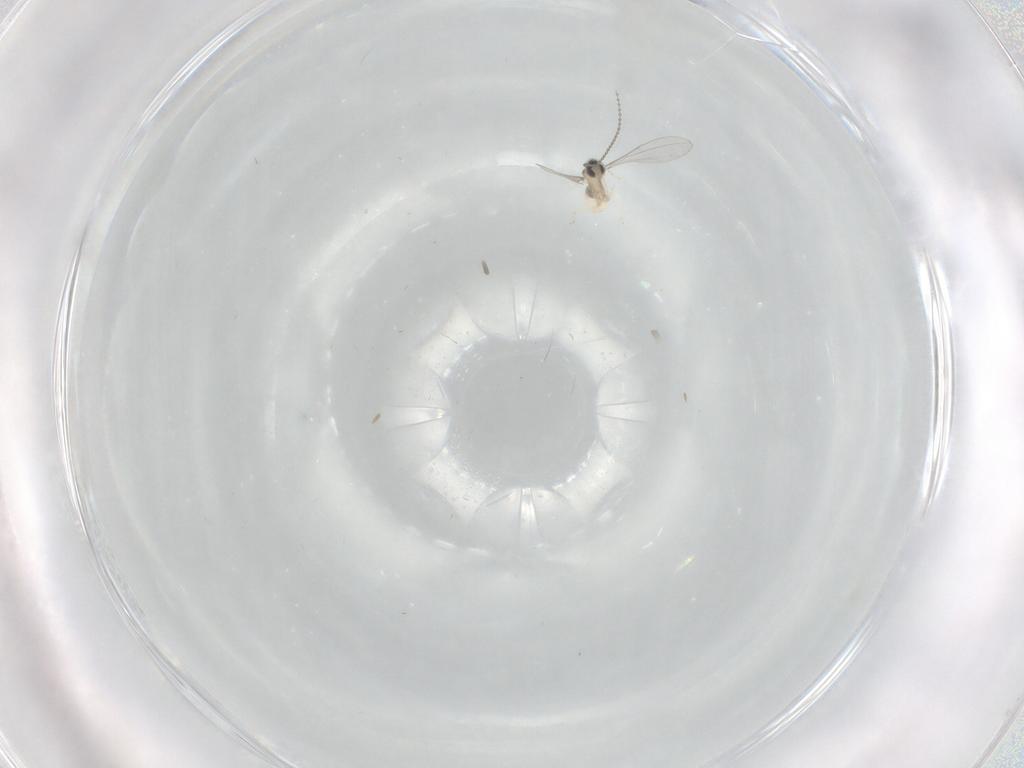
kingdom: Animalia
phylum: Arthropoda
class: Insecta
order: Diptera
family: Cecidomyiidae
